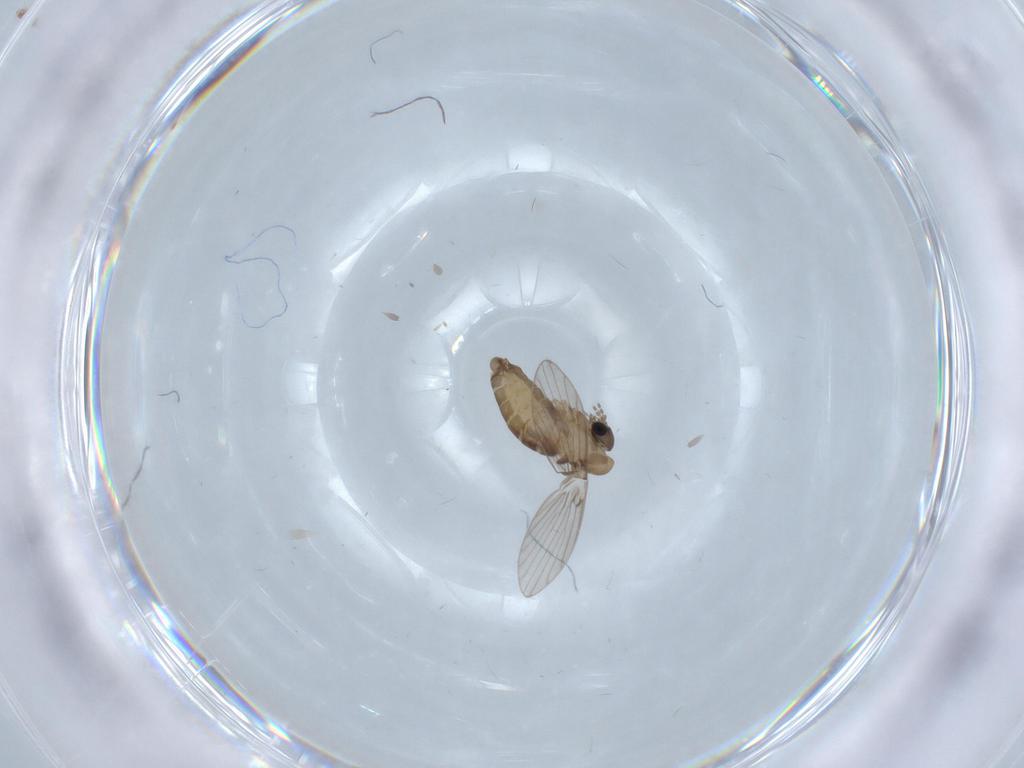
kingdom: Animalia
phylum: Arthropoda
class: Insecta
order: Diptera
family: Psychodidae
